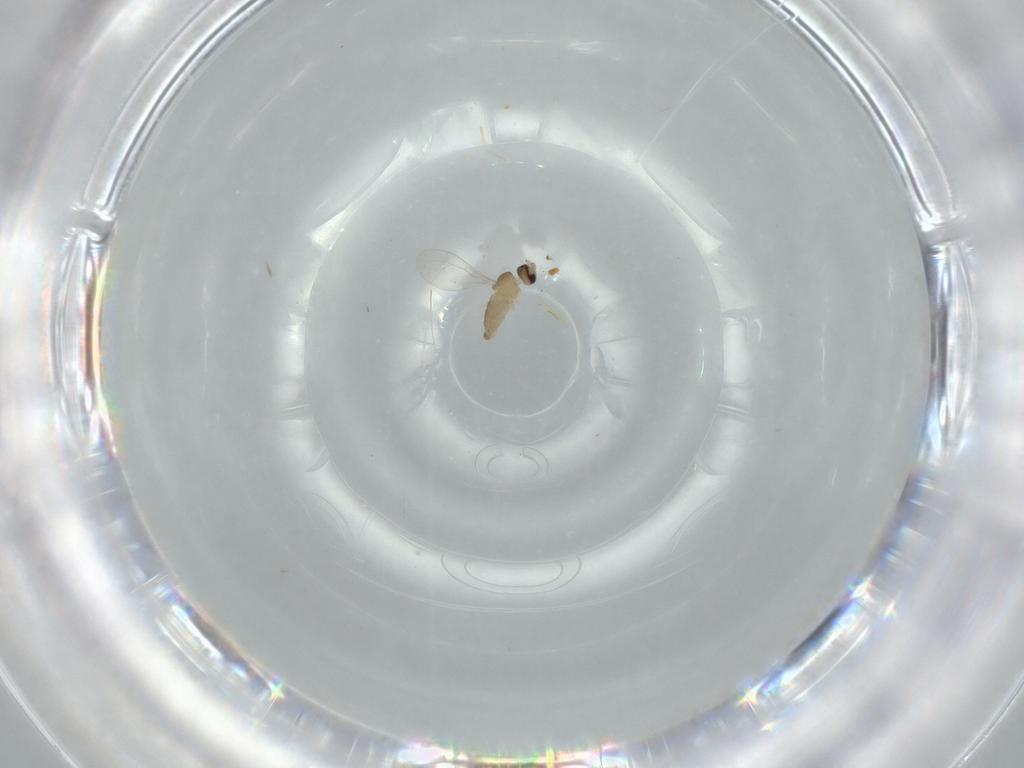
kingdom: Animalia
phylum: Arthropoda
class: Insecta
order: Diptera
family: Cecidomyiidae
